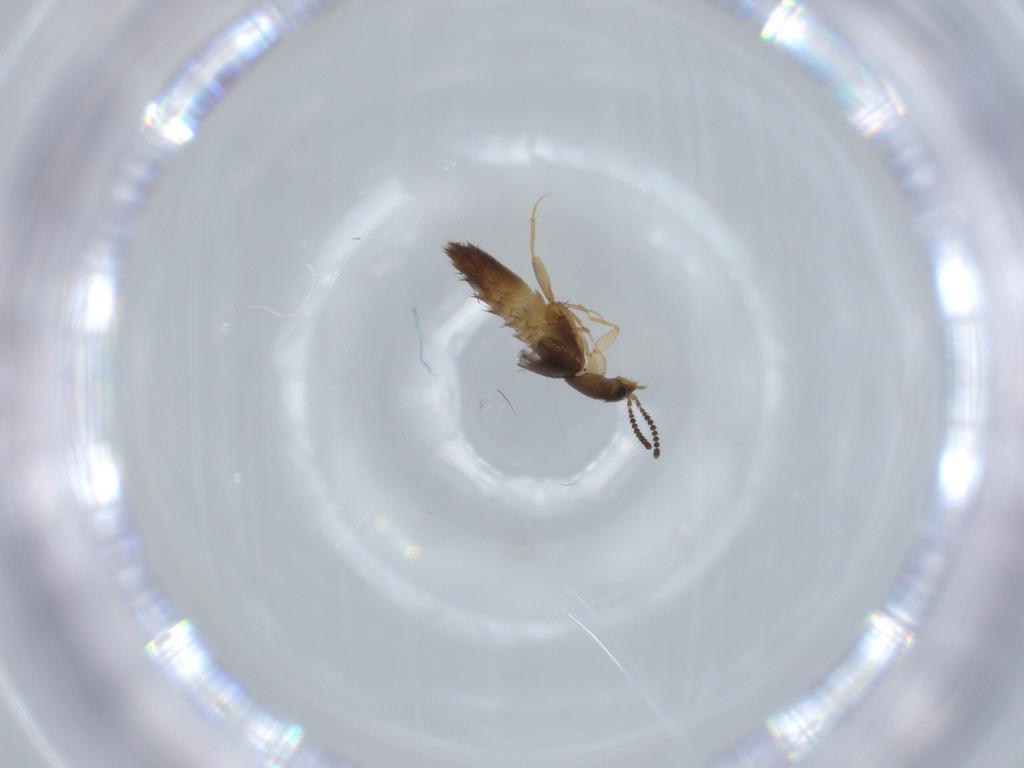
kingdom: Animalia
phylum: Arthropoda
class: Insecta
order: Coleoptera
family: Staphylinidae
